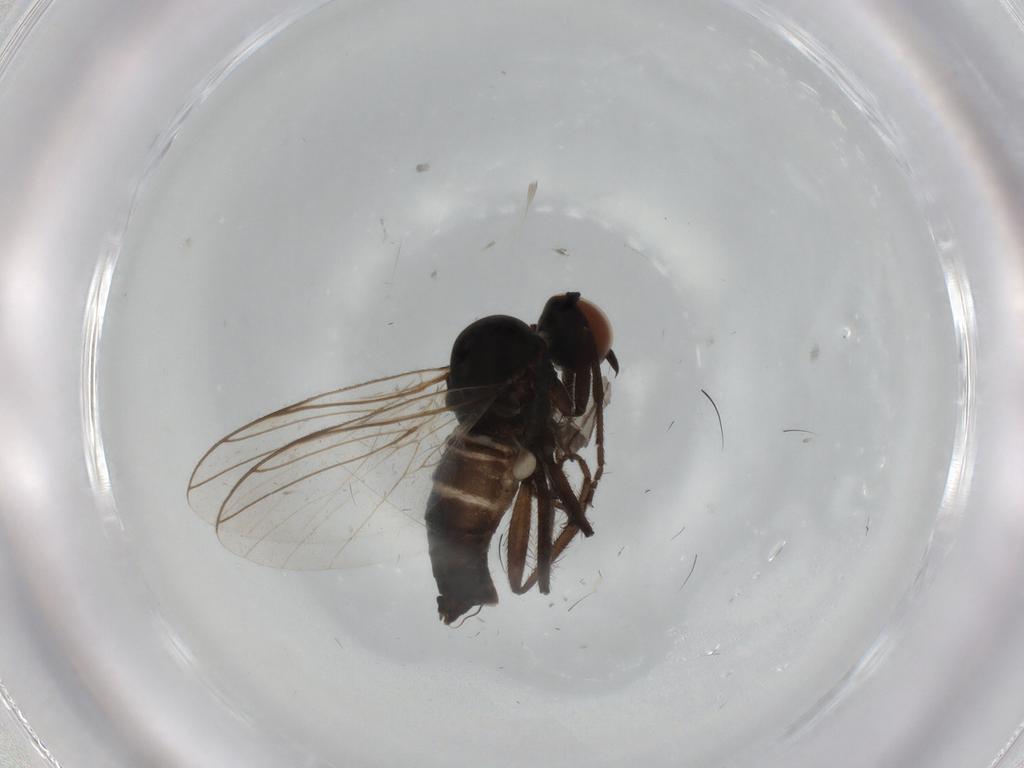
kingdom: Animalia
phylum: Arthropoda
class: Insecta
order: Diptera
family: Empididae
